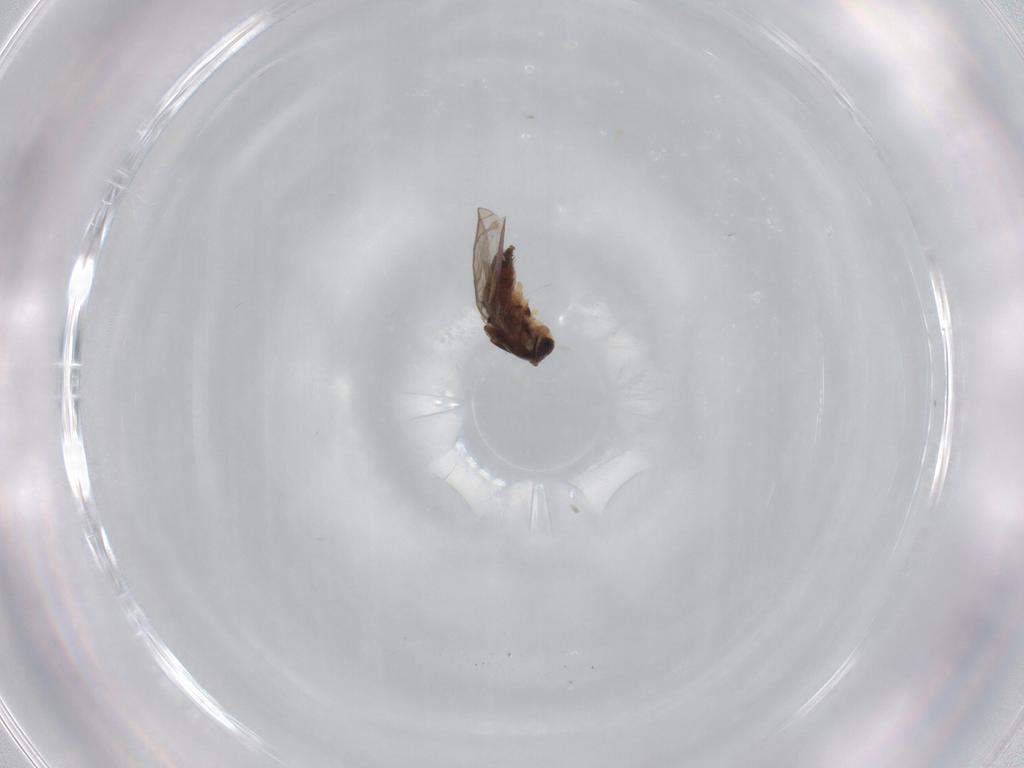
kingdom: Animalia
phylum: Arthropoda
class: Insecta
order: Diptera
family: Chloropidae
